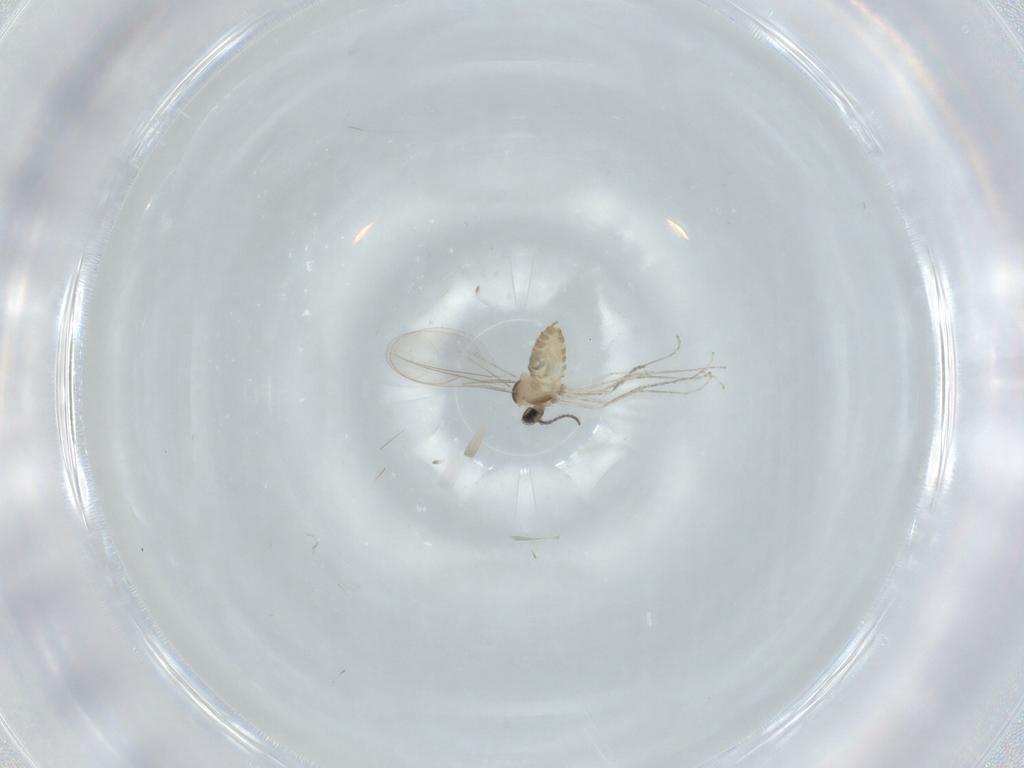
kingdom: Animalia
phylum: Arthropoda
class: Insecta
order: Diptera
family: Cecidomyiidae
